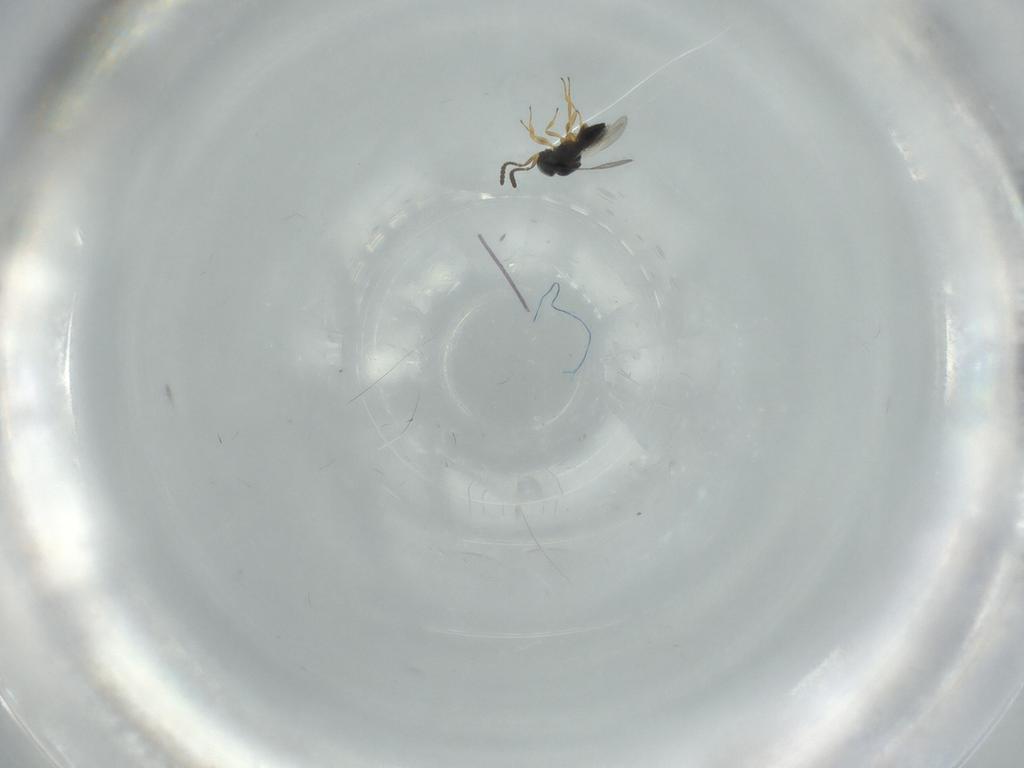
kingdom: Animalia
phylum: Arthropoda
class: Insecta
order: Hymenoptera
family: Scelionidae
